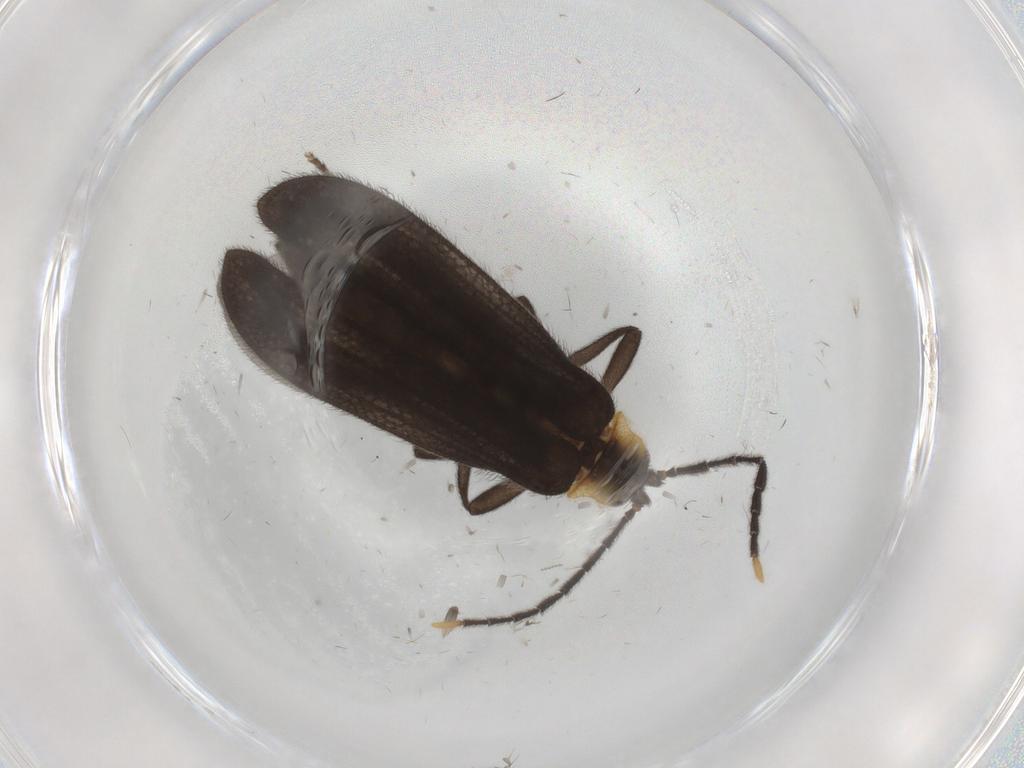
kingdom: Animalia
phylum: Arthropoda
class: Insecta
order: Coleoptera
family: Lycidae
